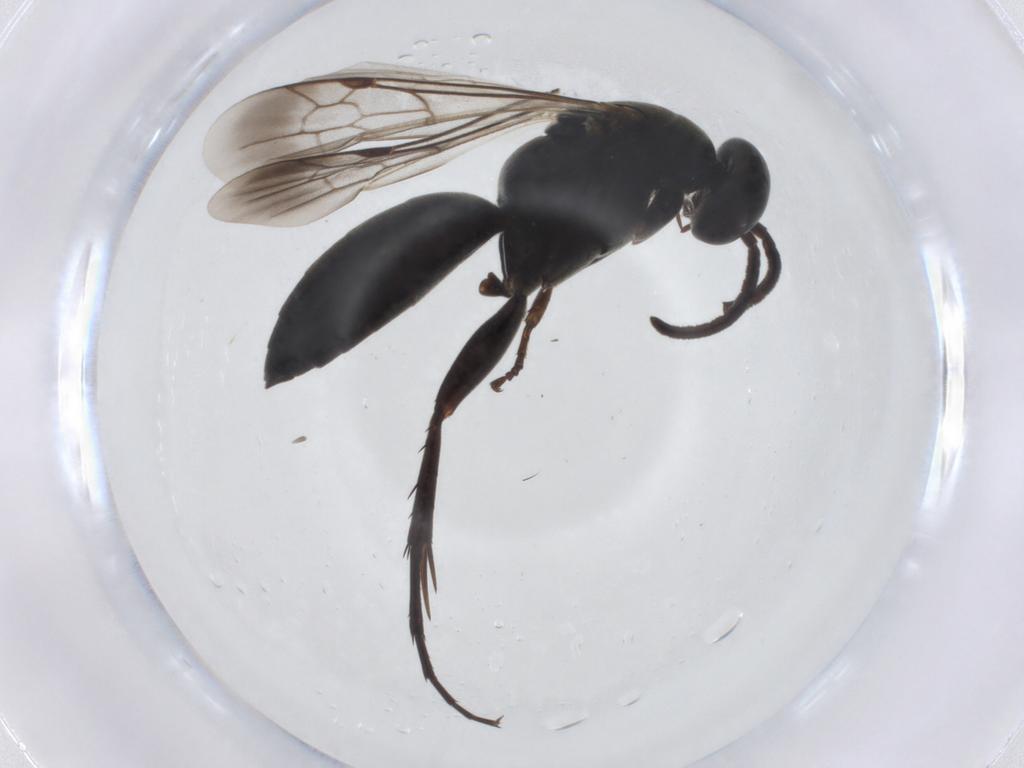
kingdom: Animalia
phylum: Arthropoda
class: Insecta
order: Hymenoptera
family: Pompilidae
